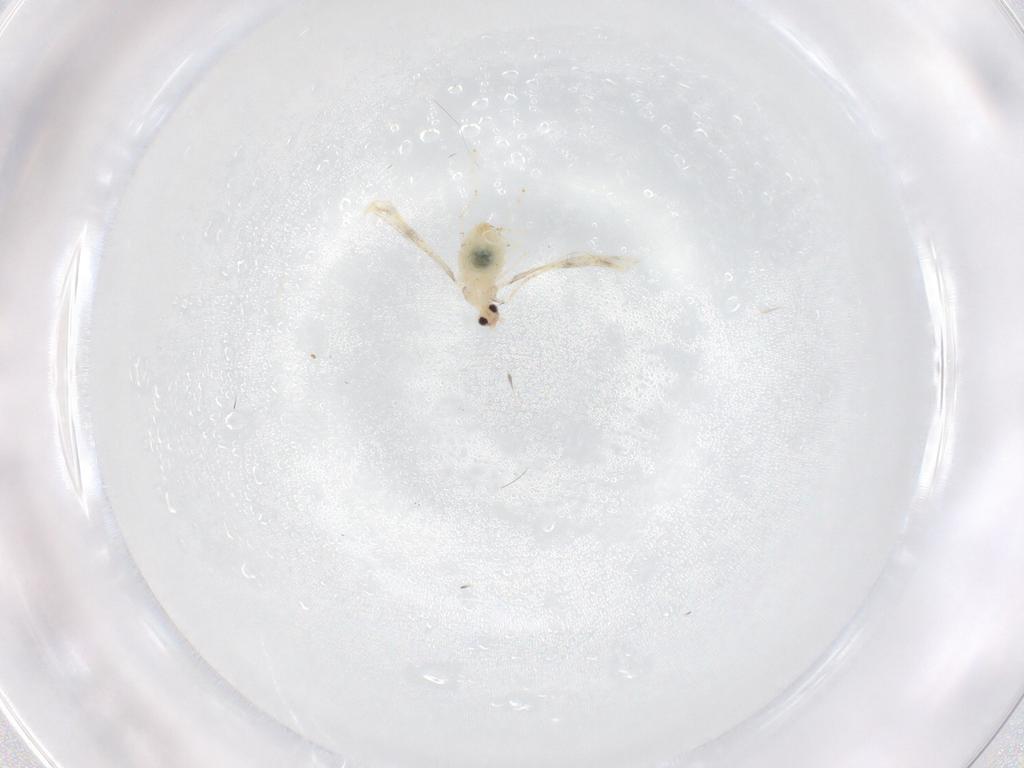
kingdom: Animalia
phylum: Arthropoda
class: Insecta
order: Diptera
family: Cecidomyiidae
